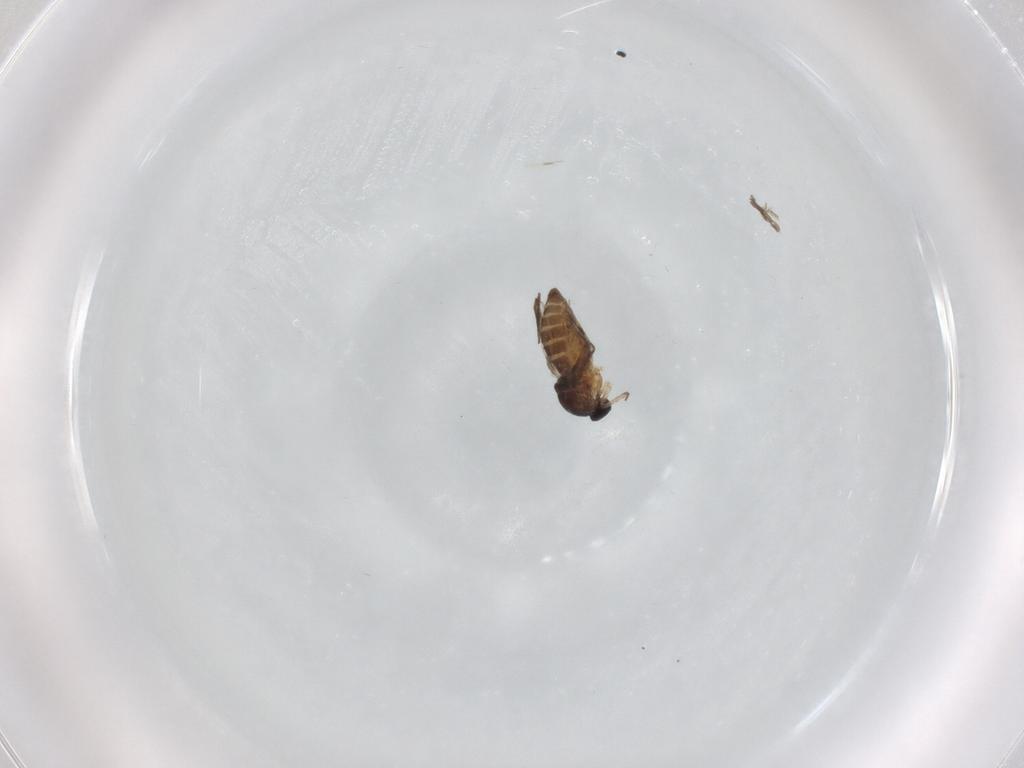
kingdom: Animalia
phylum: Arthropoda
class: Insecta
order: Diptera
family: Chironomidae
